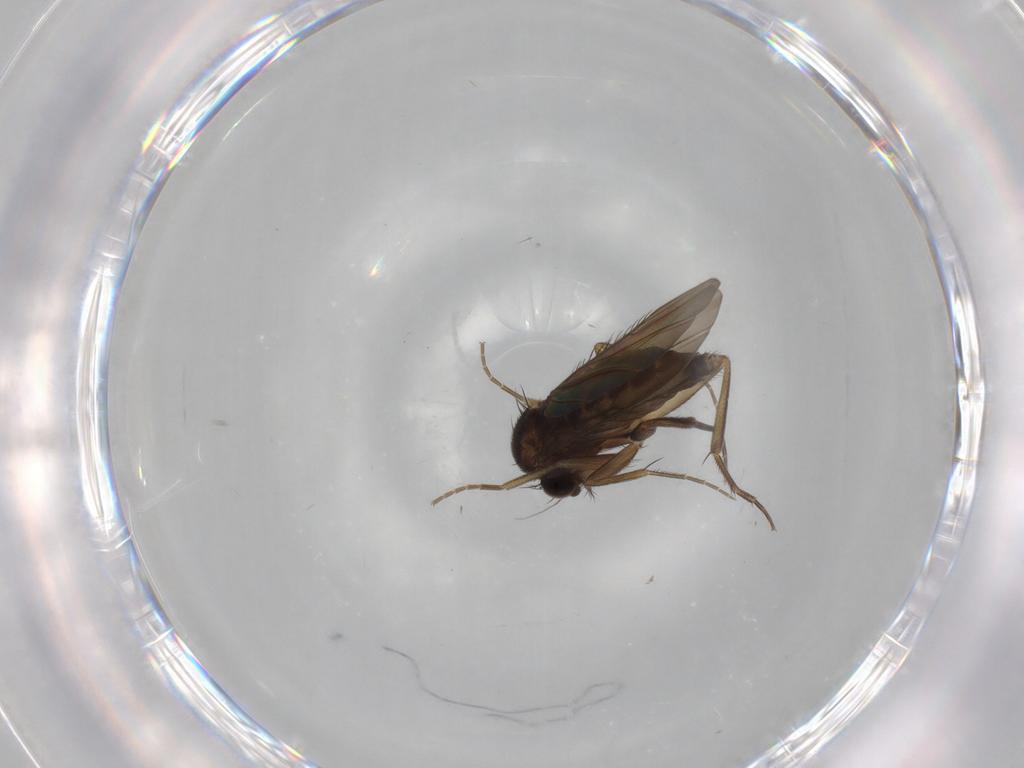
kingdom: Animalia
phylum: Arthropoda
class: Insecta
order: Diptera
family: Phoridae
